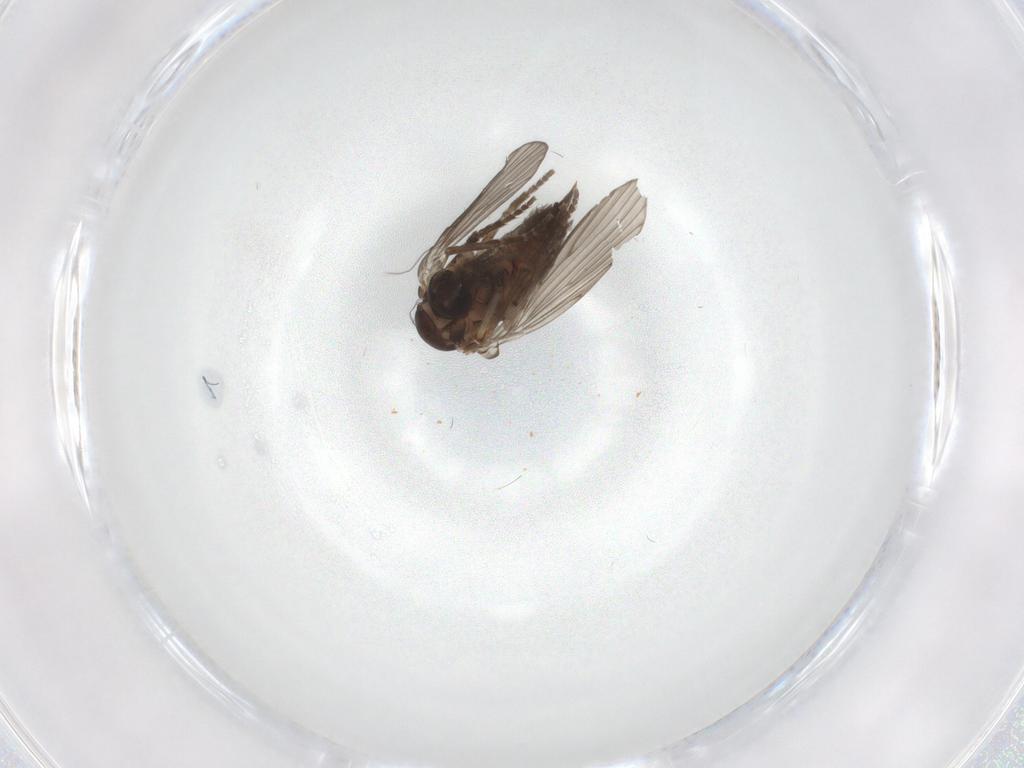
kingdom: Animalia
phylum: Arthropoda
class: Insecta
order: Diptera
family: Psychodidae
